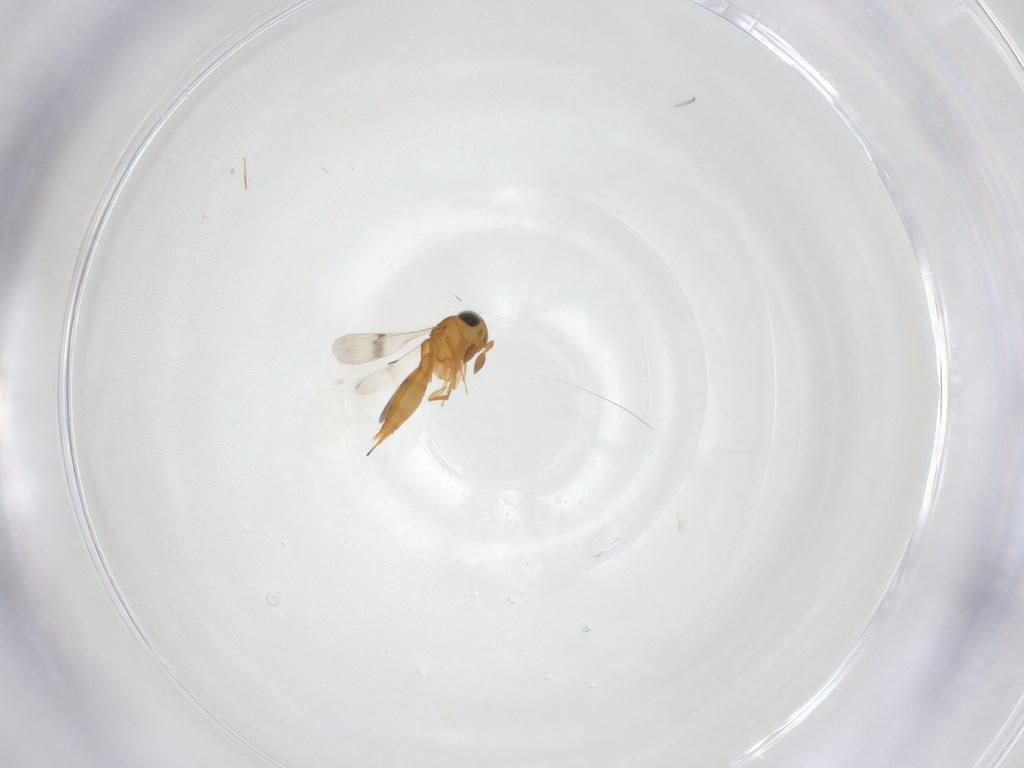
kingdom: Animalia
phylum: Arthropoda
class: Insecta
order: Hymenoptera
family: Scelionidae
